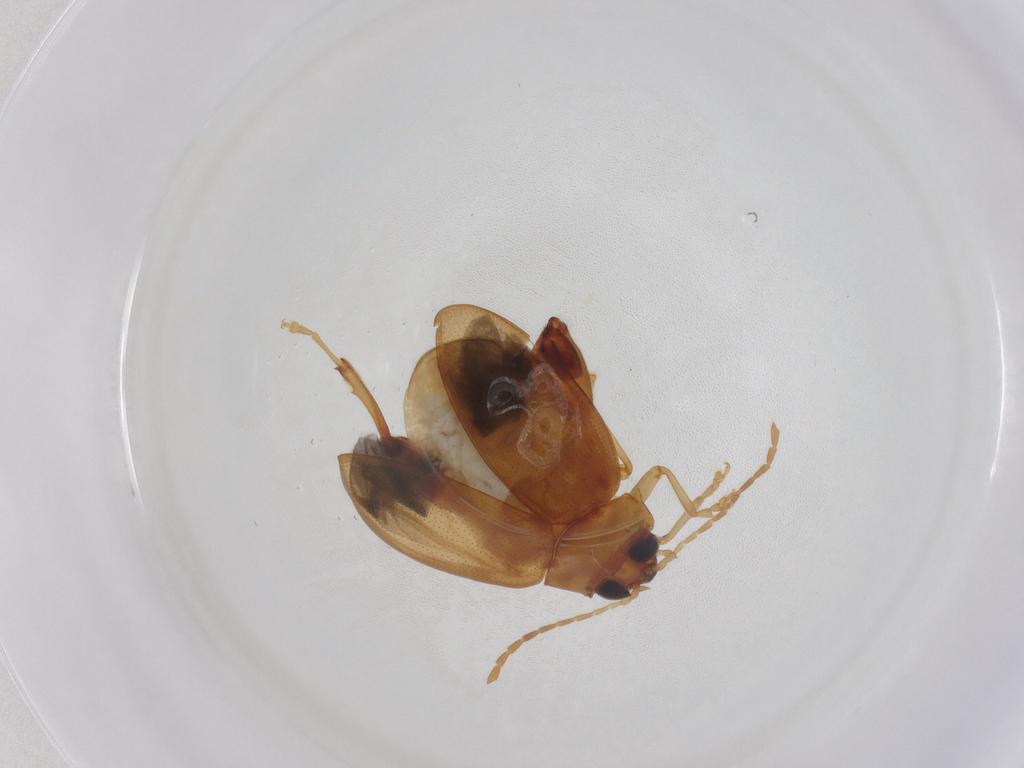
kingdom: Animalia
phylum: Arthropoda
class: Insecta
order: Coleoptera
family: Chrysomelidae
